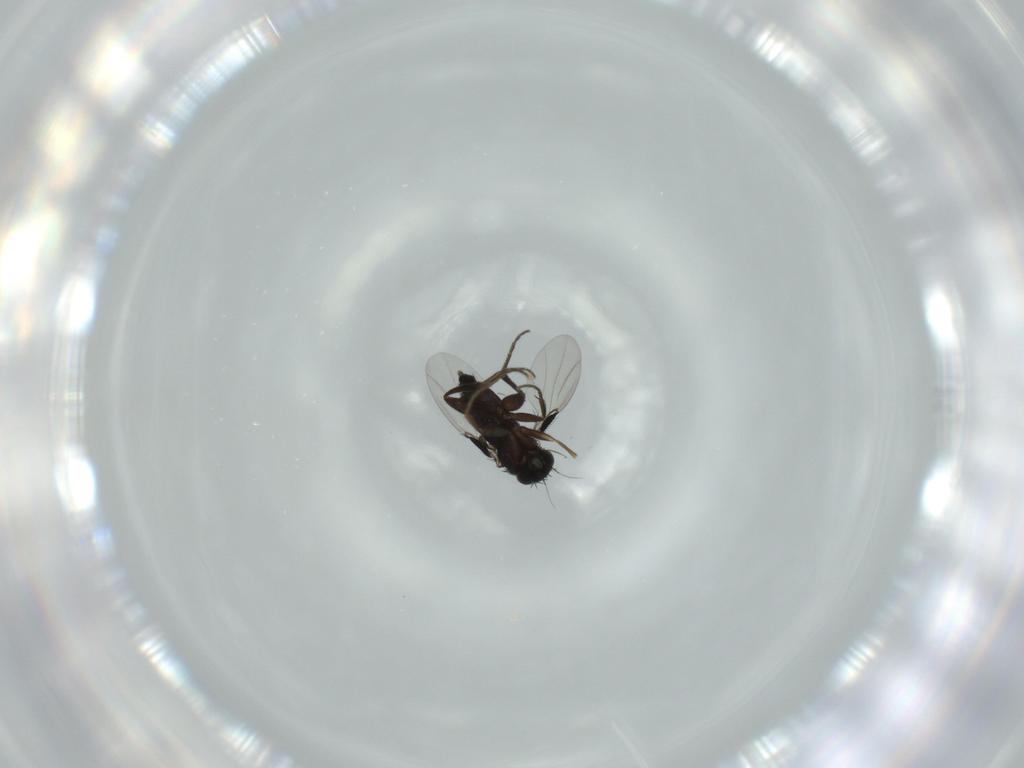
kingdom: Animalia
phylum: Arthropoda
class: Insecta
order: Diptera
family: Phoridae
